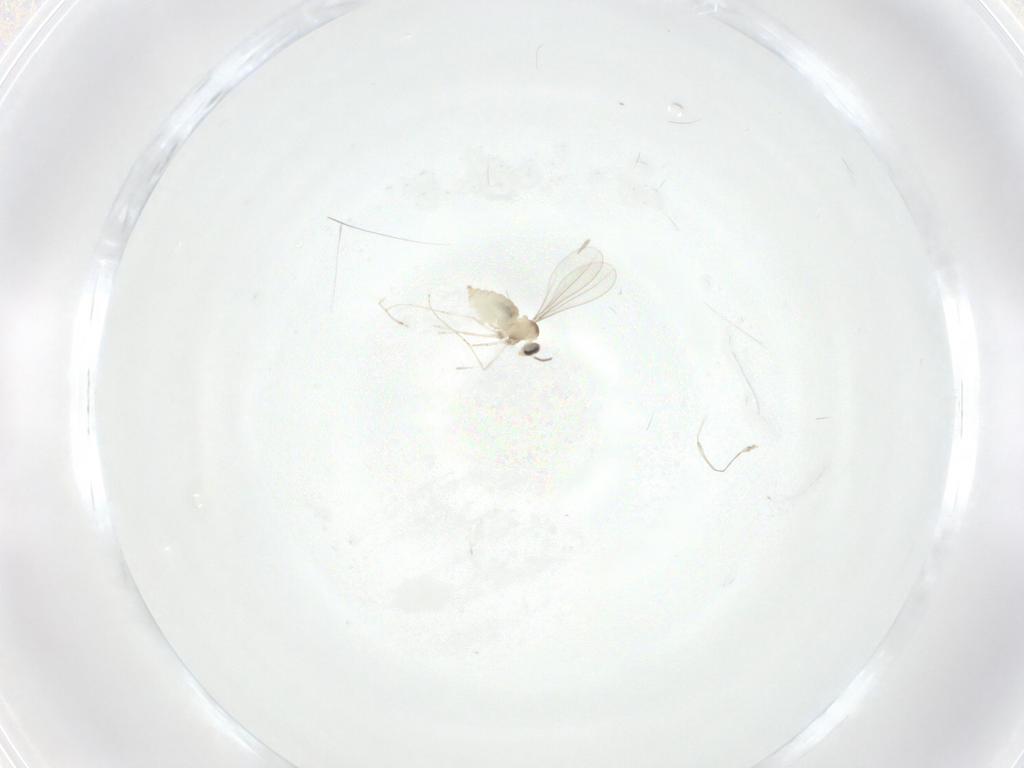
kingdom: Animalia
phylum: Arthropoda
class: Insecta
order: Diptera
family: Cecidomyiidae
